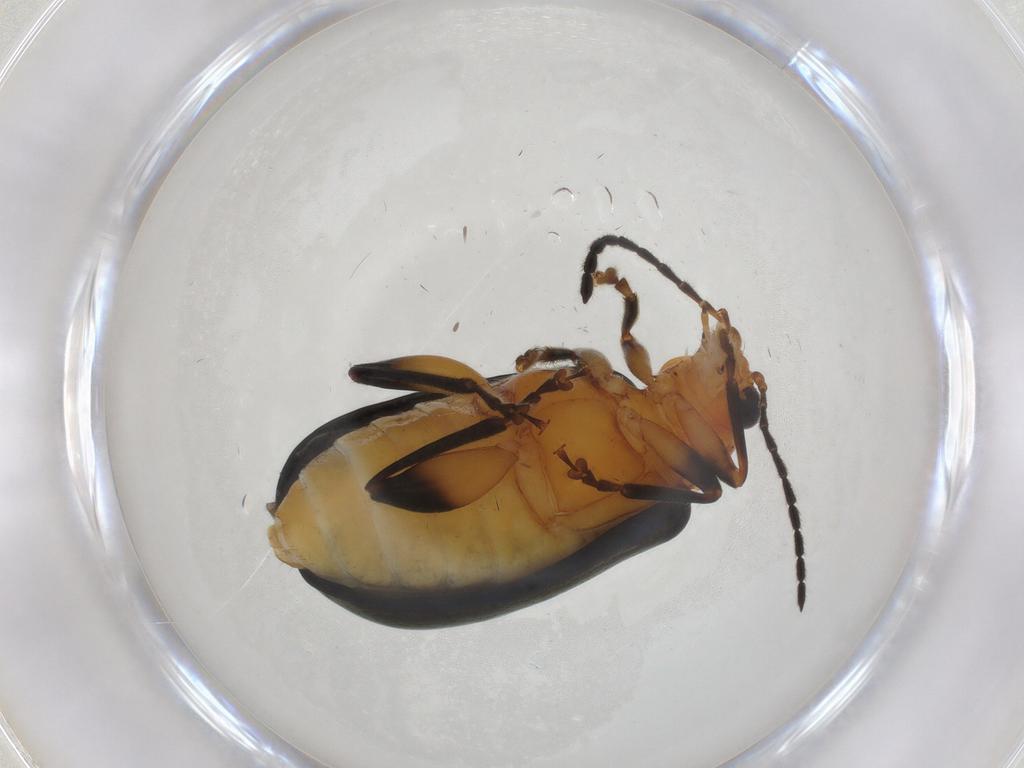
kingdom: Animalia
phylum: Arthropoda
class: Insecta
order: Coleoptera
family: Chrysomelidae
